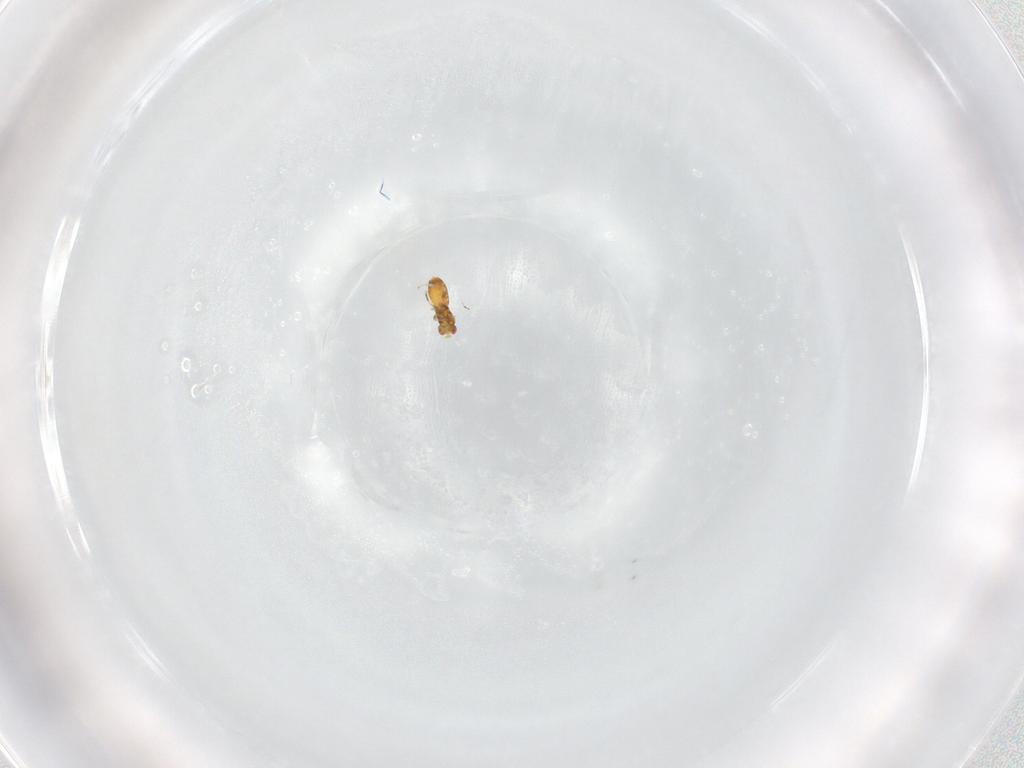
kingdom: Animalia
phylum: Arthropoda
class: Insecta
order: Hymenoptera
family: Trichogrammatidae
